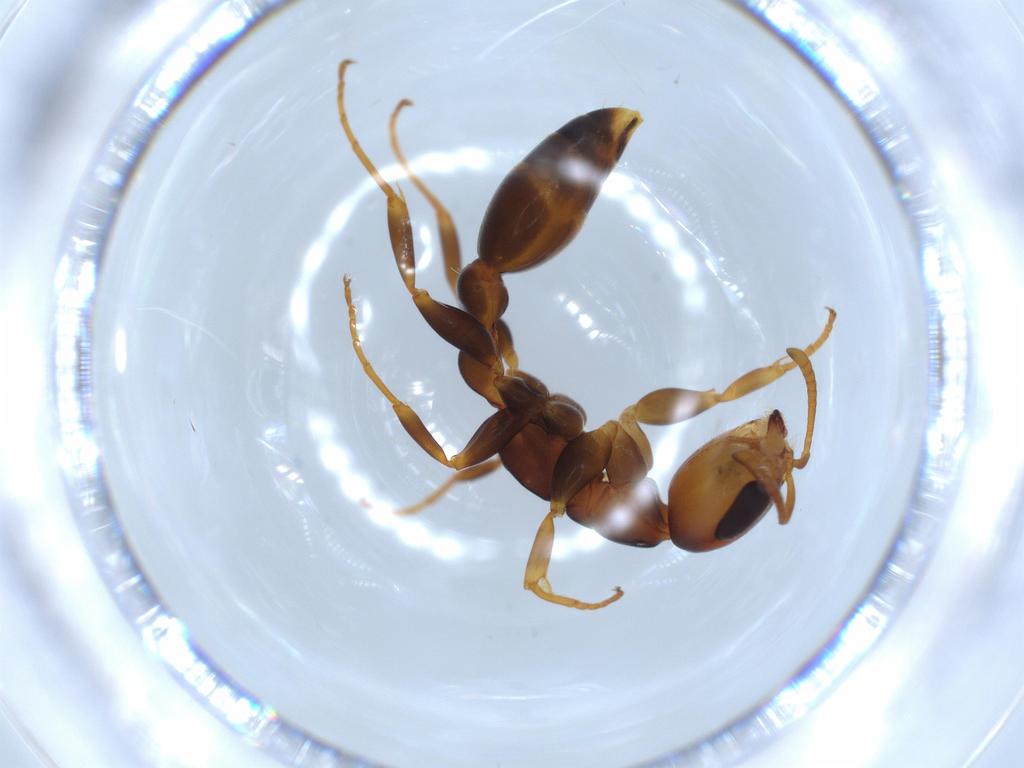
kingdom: Animalia
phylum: Arthropoda
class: Insecta
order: Hymenoptera
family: Formicidae
